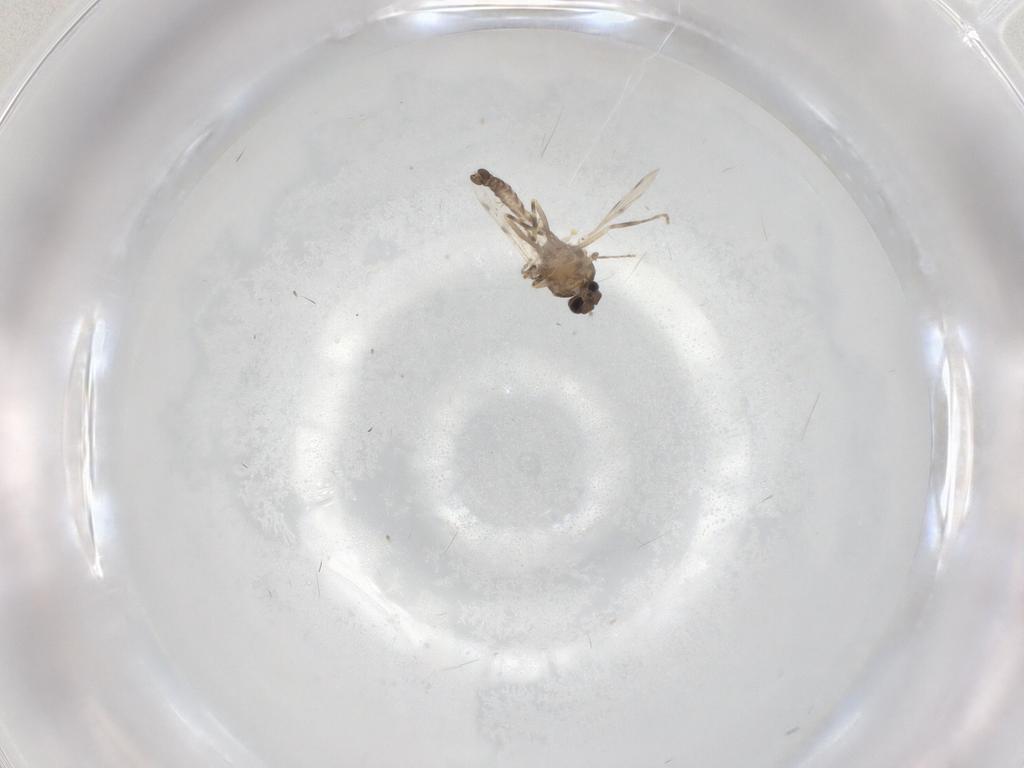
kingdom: Animalia
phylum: Arthropoda
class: Insecta
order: Diptera
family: Ceratopogonidae
